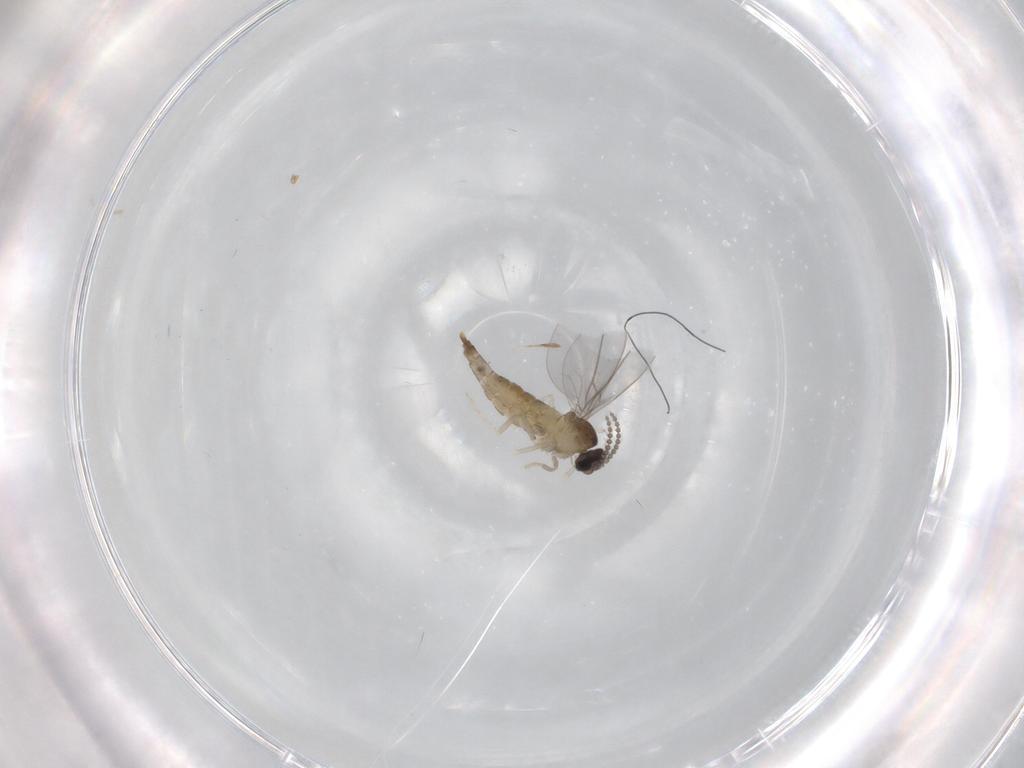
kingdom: Animalia
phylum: Arthropoda
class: Insecta
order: Diptera
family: Cecidomyiidae
